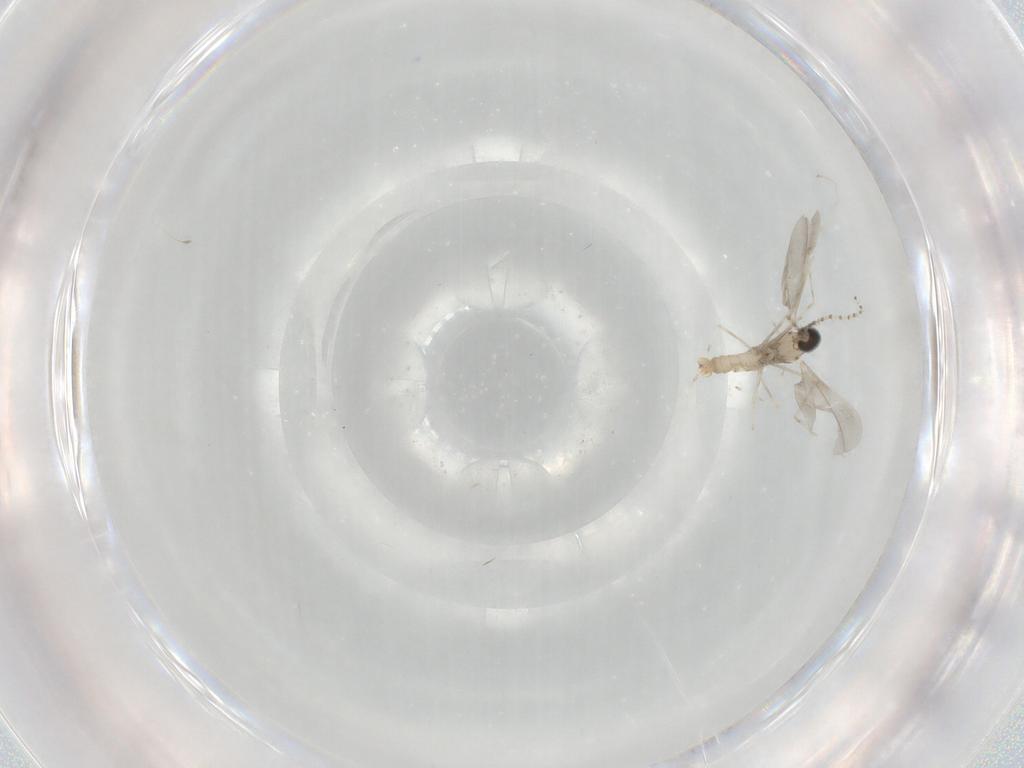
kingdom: Animalia
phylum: Arthropoda
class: Insecta
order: Diptera
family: Cecidomyiidae
